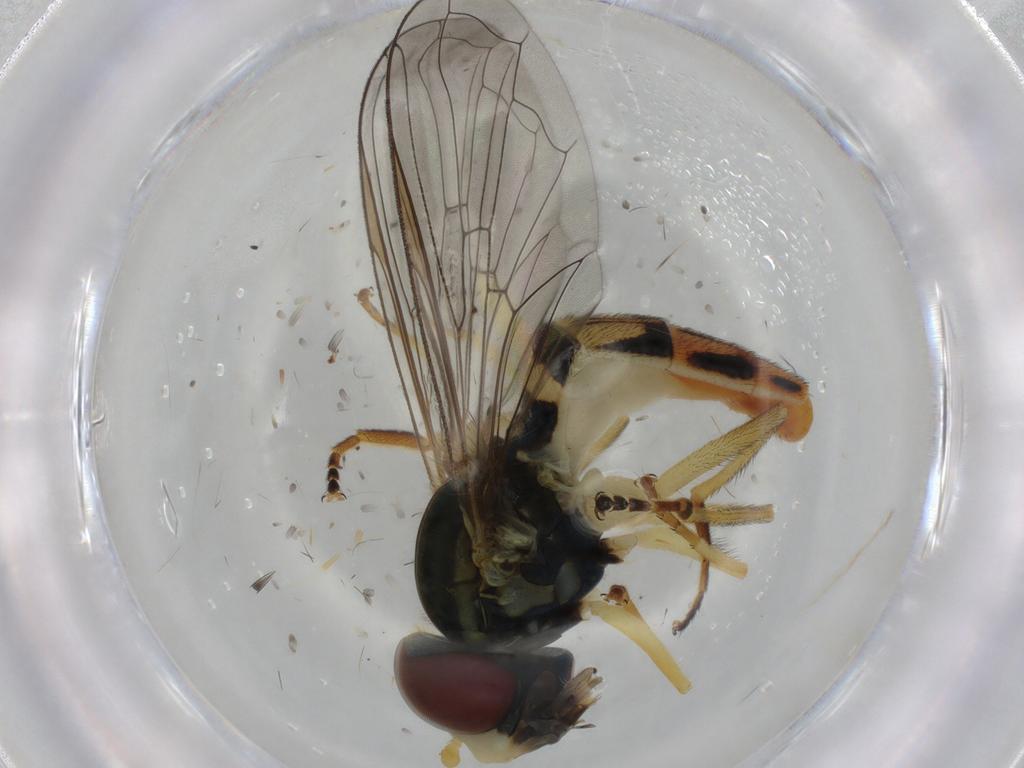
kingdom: Animalia
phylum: Arthropoda
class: Insecta
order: Diptera
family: Syrphidae
